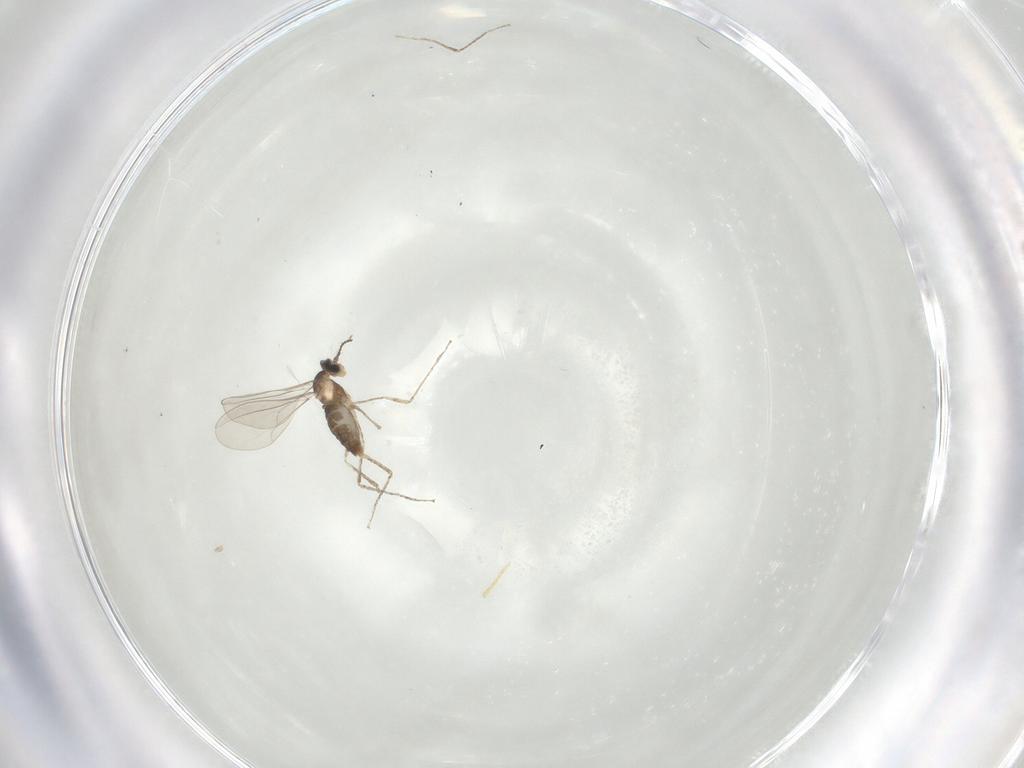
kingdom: Animalia
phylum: Arthropoda
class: Insecta
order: Diptera
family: Cecidomyiidae
